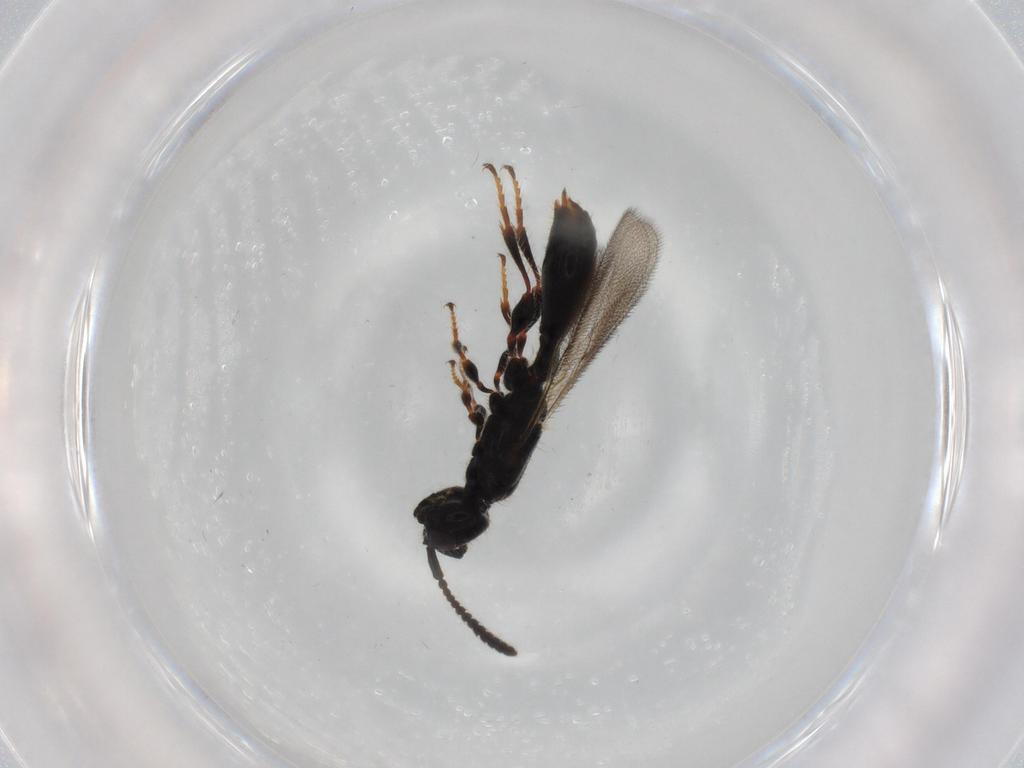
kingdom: Animalia
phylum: Arthropoda
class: Insecta
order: Hymenoptera
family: Diapriidae
